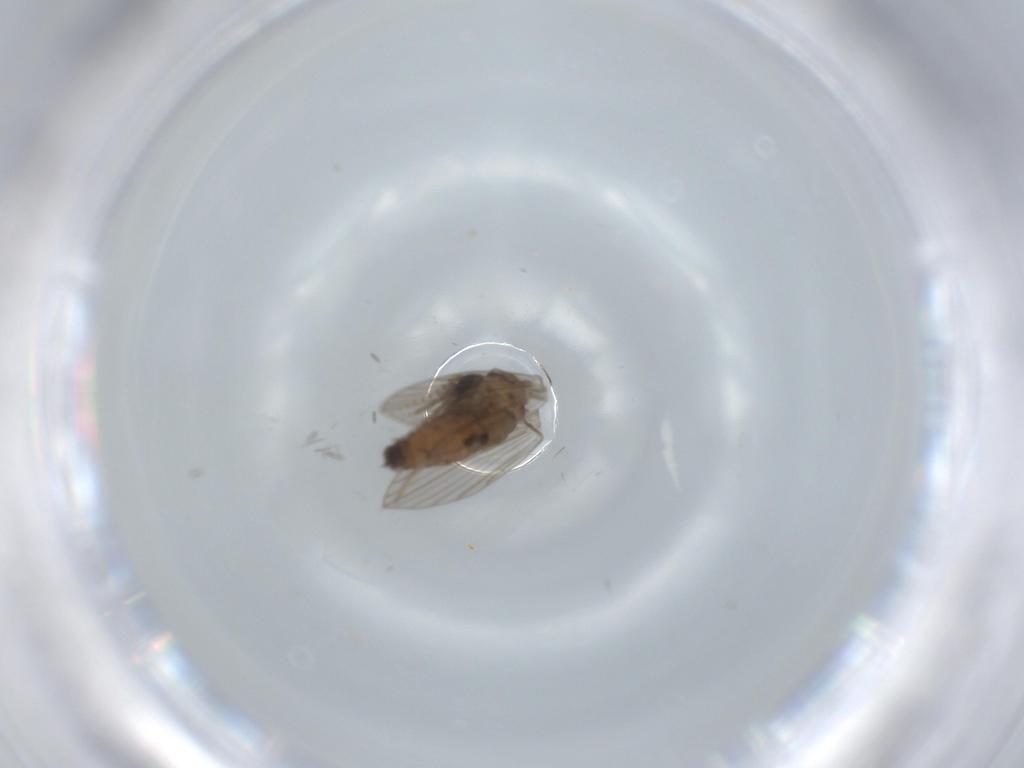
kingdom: Animalia
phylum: Arthropoda
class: Insecta
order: Diptera
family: Psychodidae
